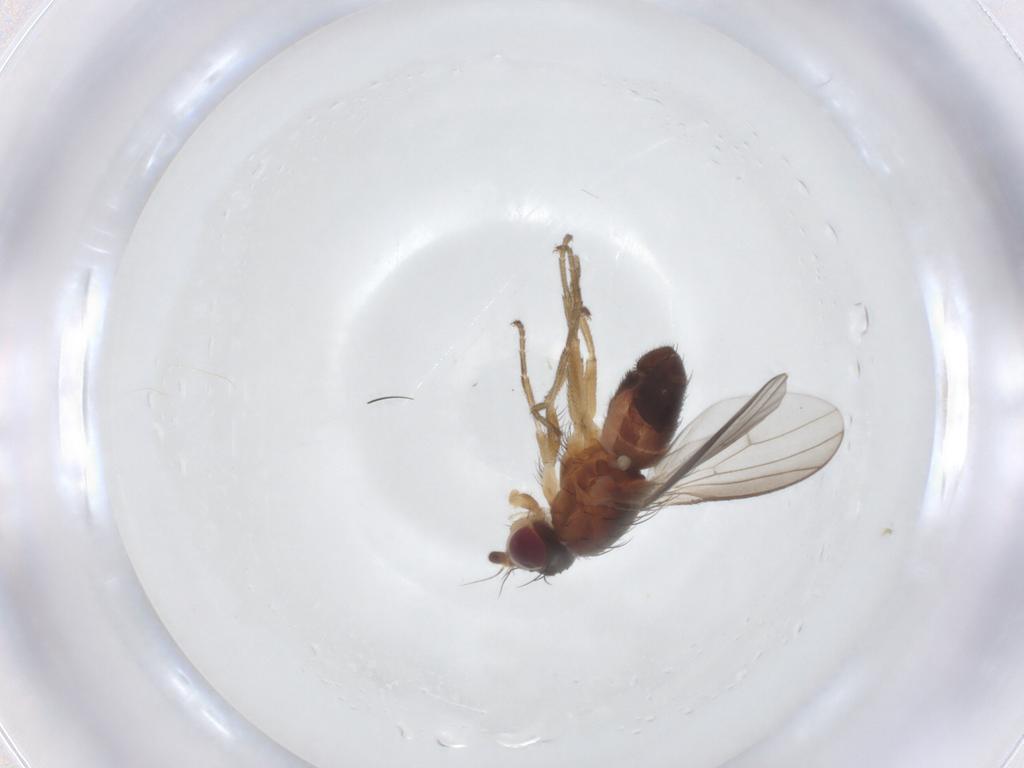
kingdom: Animalia
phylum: Arthropoda
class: Insecta
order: Diptera
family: Heleomyzidae
